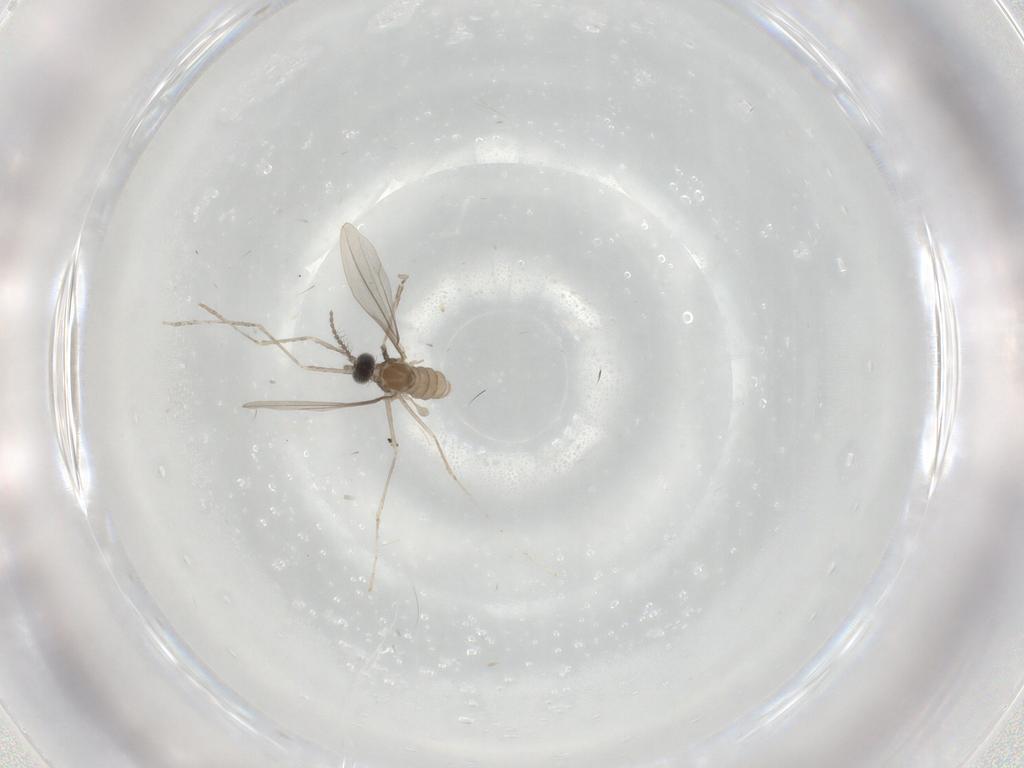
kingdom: Animalia
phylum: Arthropoda
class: Insecta
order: Diptera
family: Cecidomyiidae
